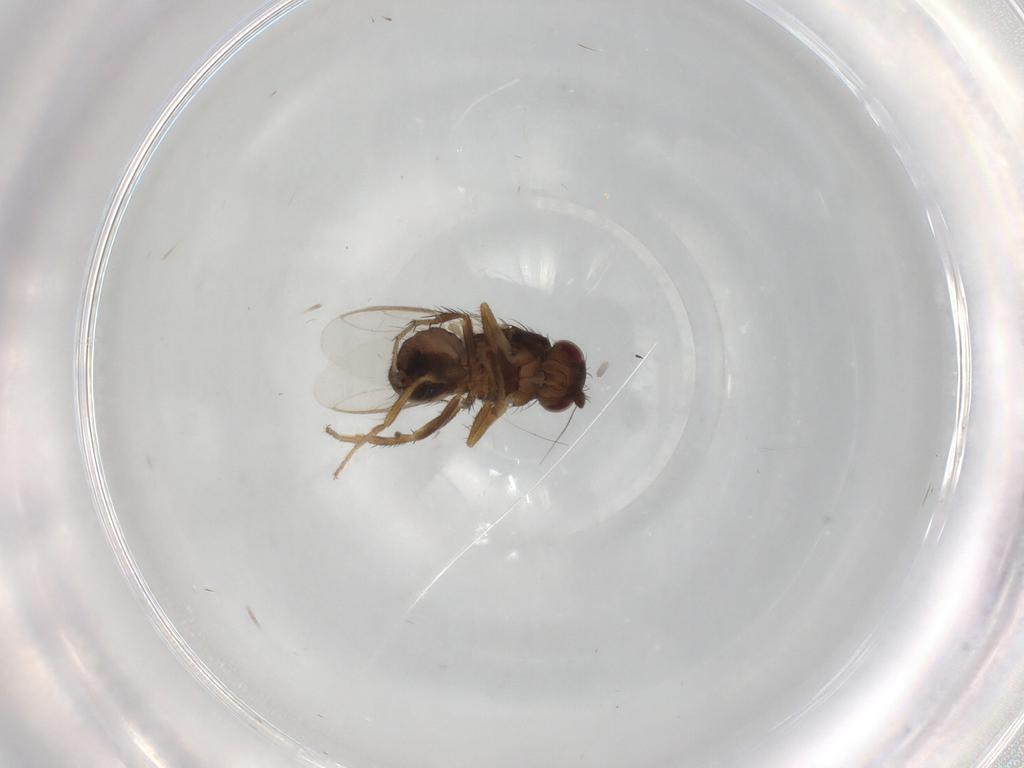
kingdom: Animalia
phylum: Arthropoda
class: Insecta
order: Diptera
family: Sphaeroceridae
